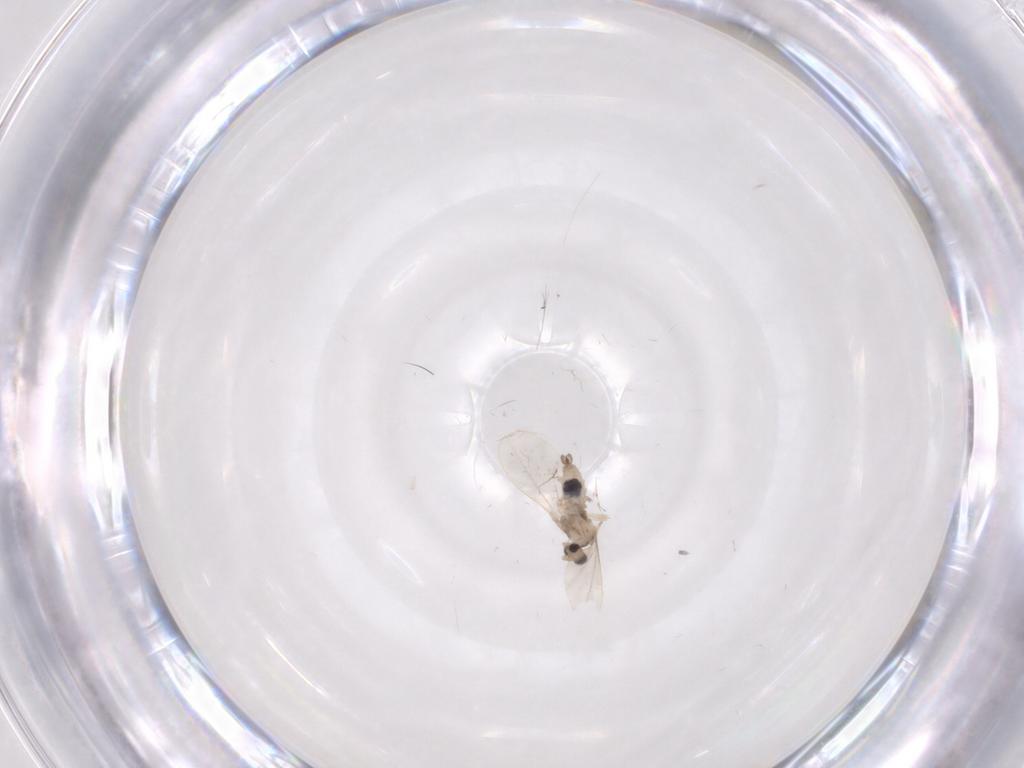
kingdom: Animalia
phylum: Arthropoda
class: Insecta
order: Diptera
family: Cecidomyiidae
